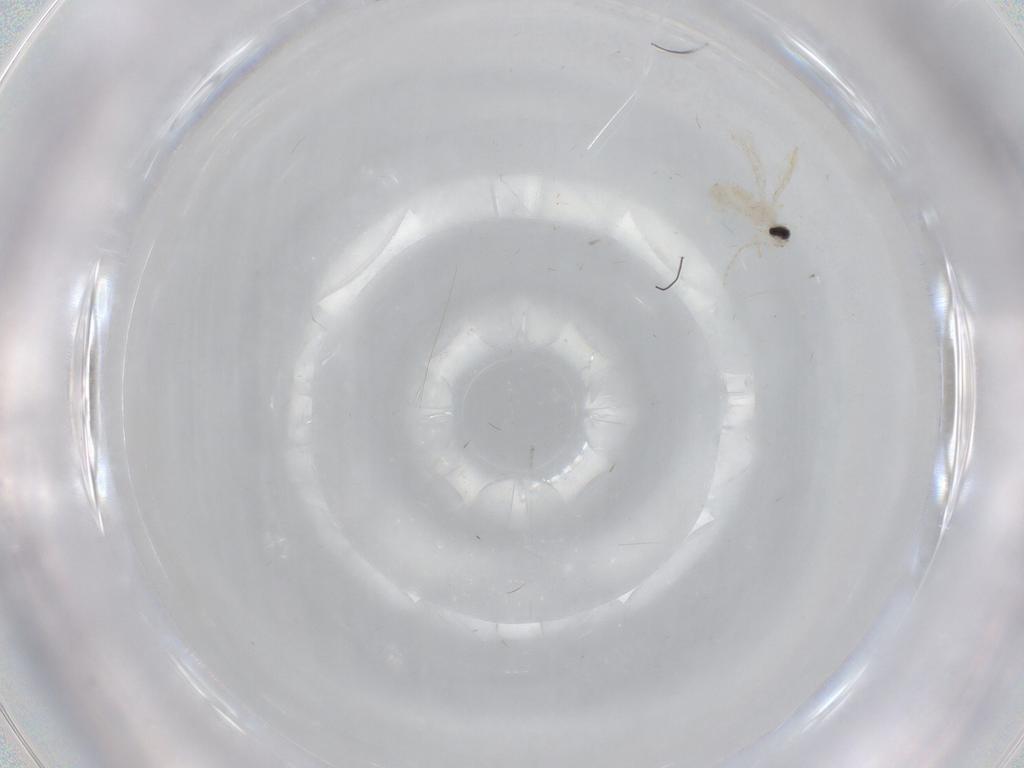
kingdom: Animalia
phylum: Arthropoda
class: Insecta
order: Diptera
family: Cecidomyiidae
